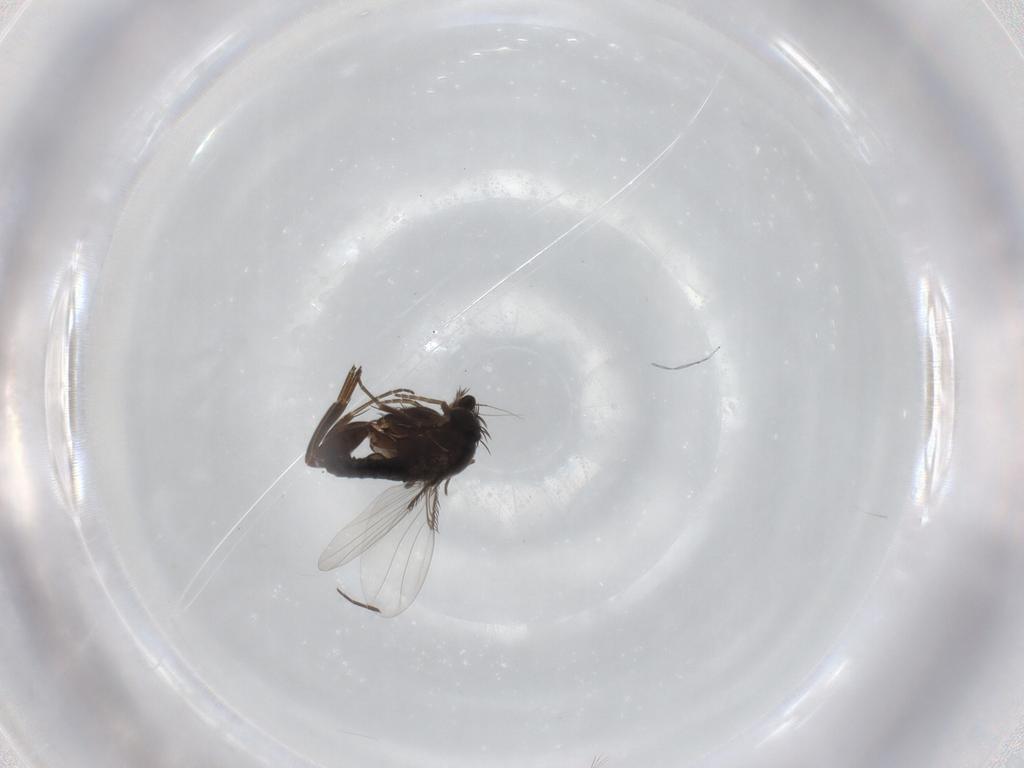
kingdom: Animalia
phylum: Arthropoda
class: Insecta
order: Diptera
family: Phoridae
